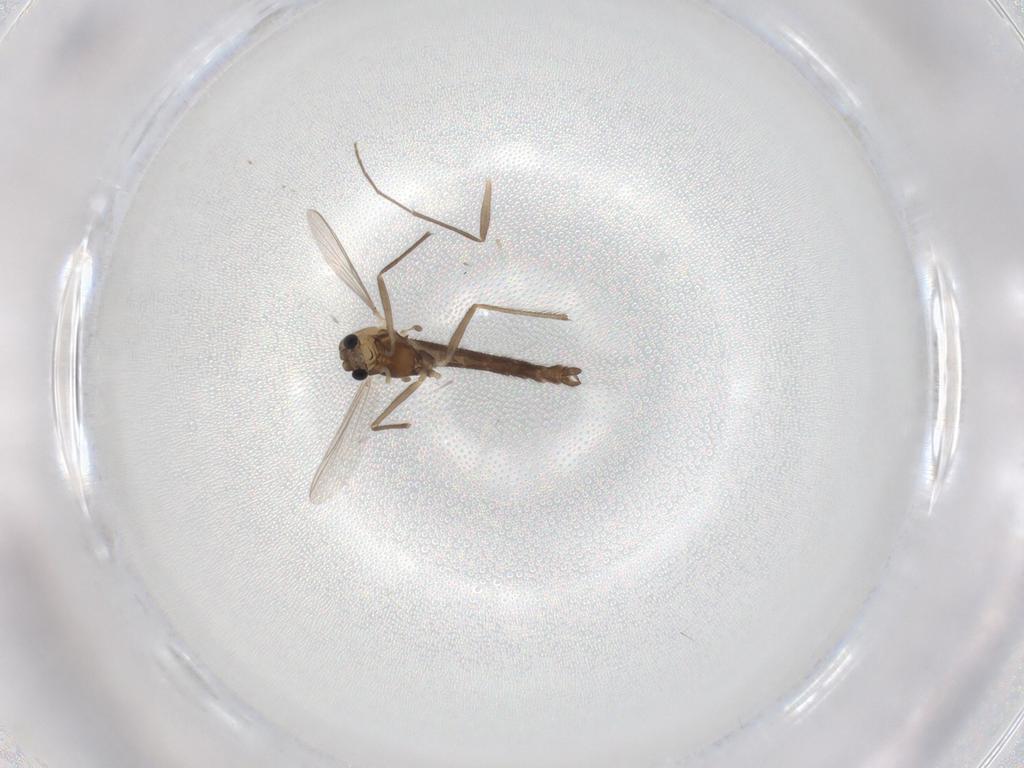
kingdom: Animalia
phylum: Arthropoda
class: Insecta
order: Diptera
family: Chironomidae
